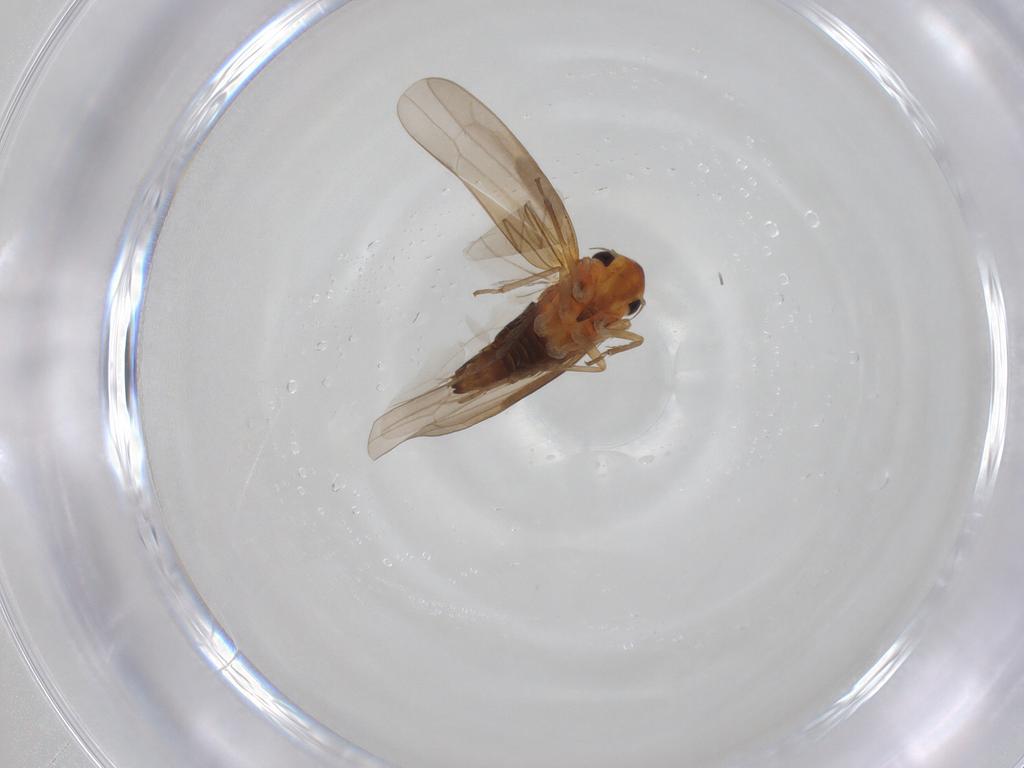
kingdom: Animalia
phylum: Arthropoda
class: Insecta
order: Hemiptera
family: Cicadellidae
